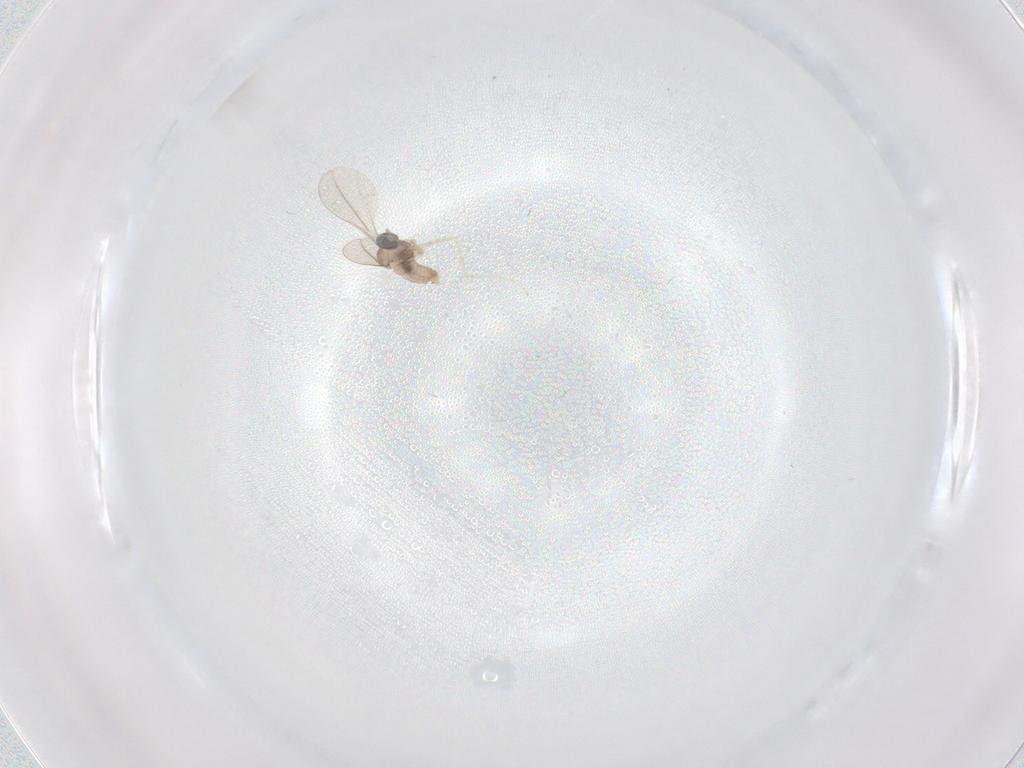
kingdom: Animalia
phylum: Arthropoda
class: Insecta
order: Diptera
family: Cecidomyiidae
